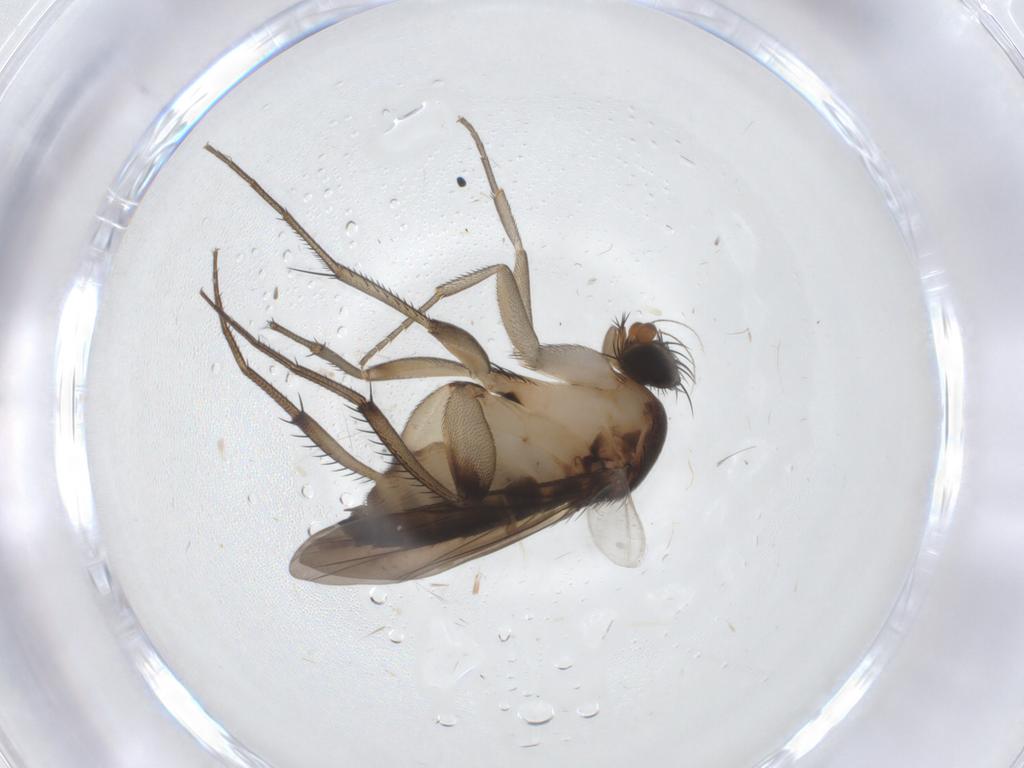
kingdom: Animalia
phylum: Arthropoda
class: Insecta
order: Diptera
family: Phoridae
